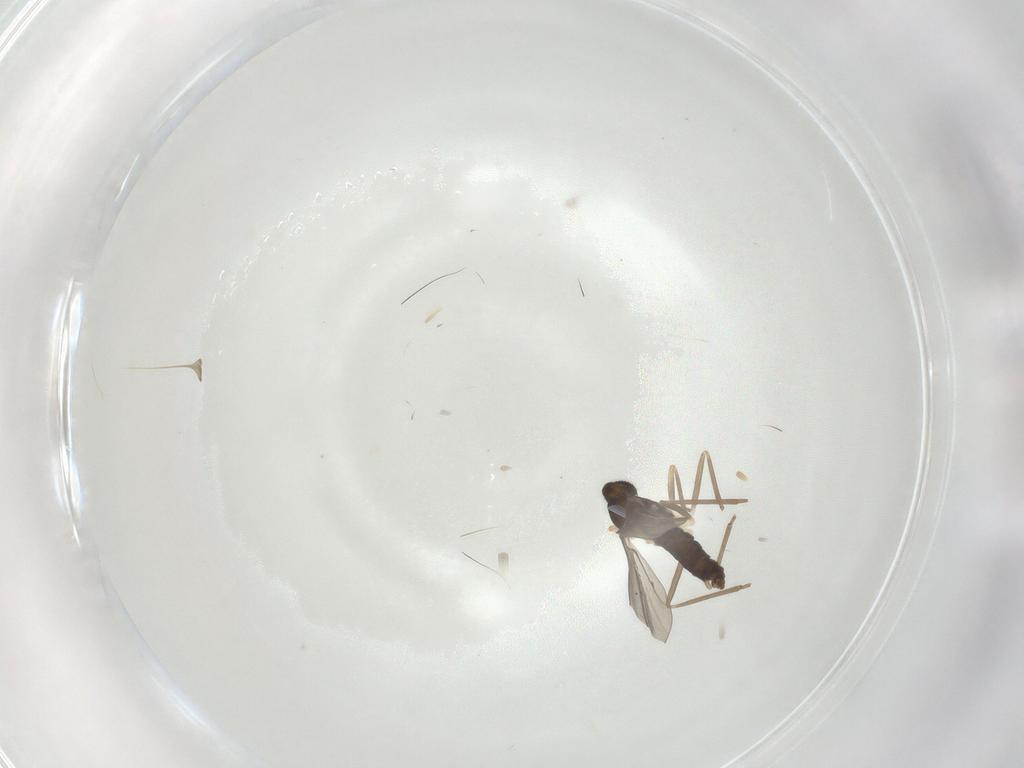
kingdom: Animalia
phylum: Arthropoda
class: Insecta
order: Diptera
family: Cecidomyiidae
